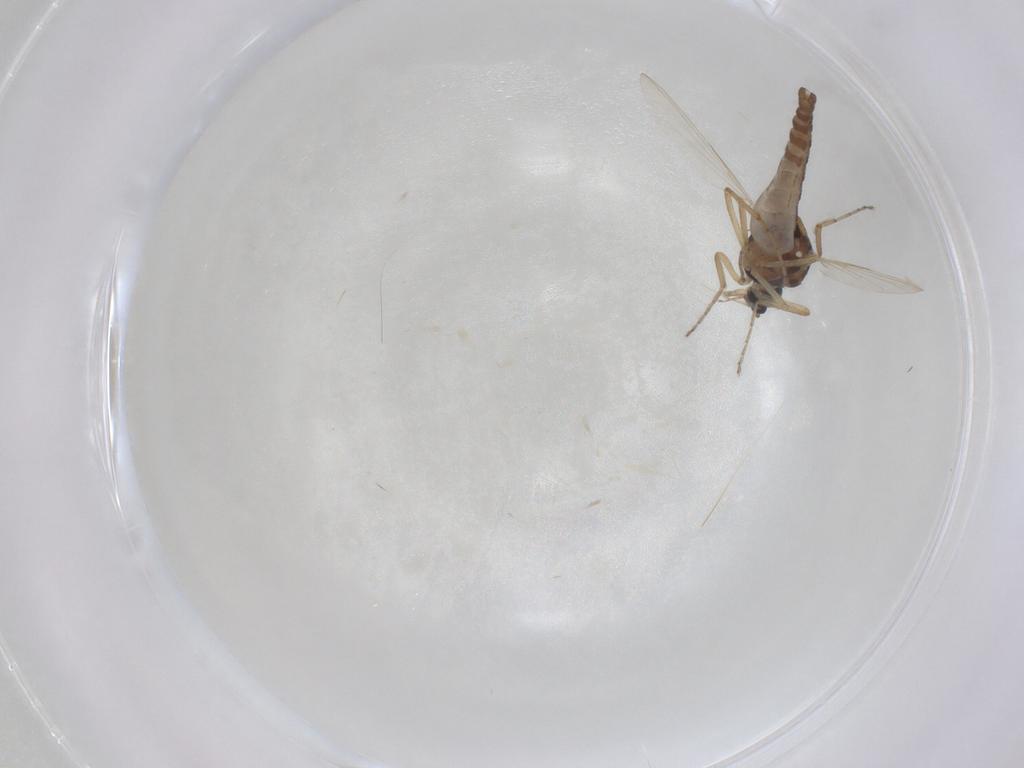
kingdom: Animalia
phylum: Arthropoda
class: Insecta
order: Diptera
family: Ceratopogonidae
